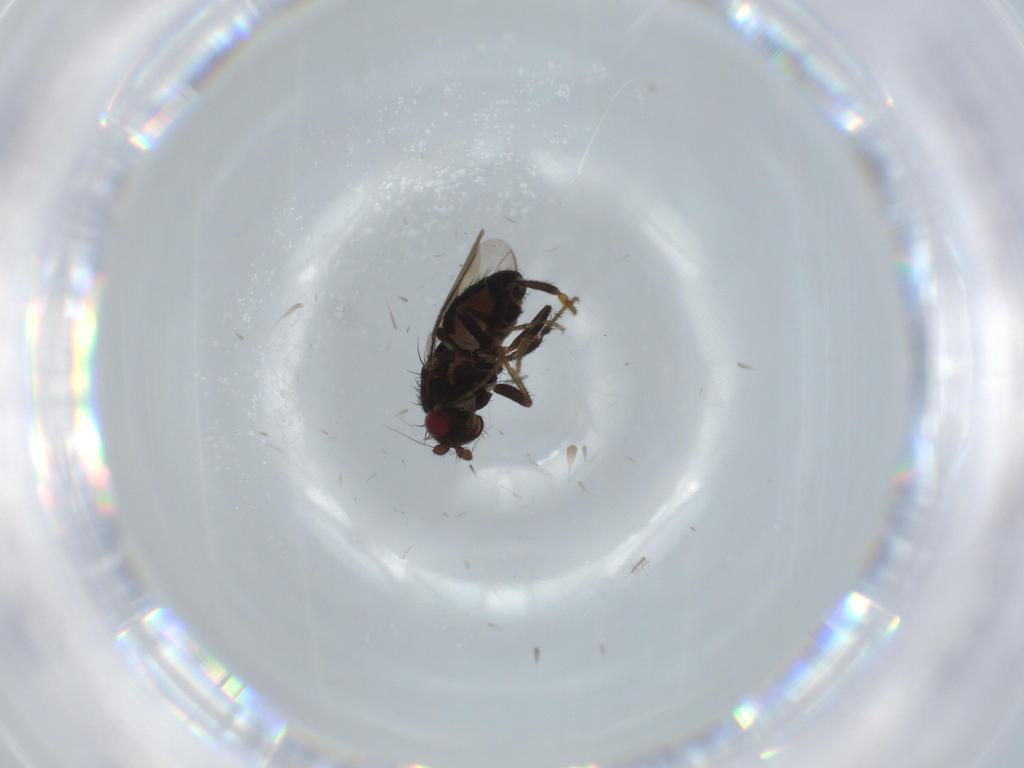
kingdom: Animalia
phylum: Arthropoda
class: Insecta
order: Diptera
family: Sphaeroceridae
